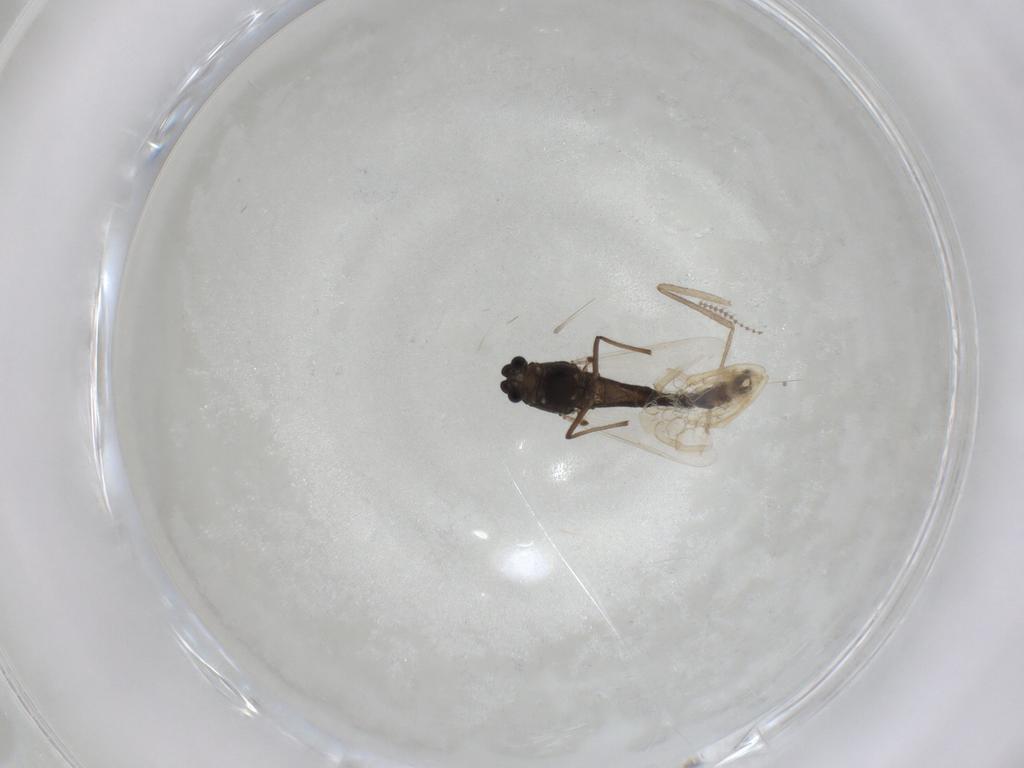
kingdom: Animalia
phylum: Arthropoda
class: Insecta
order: Diptera
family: Chironomidae
